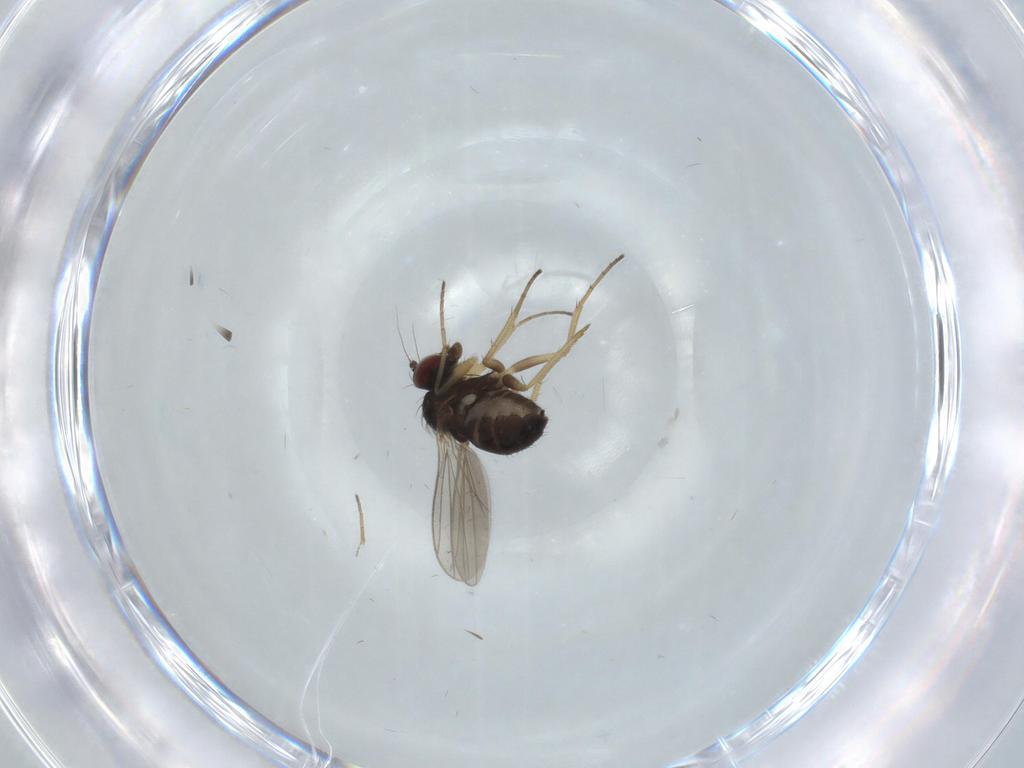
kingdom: Animalia
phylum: Arthropoda
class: Insecta
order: Diptera
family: Dolichopodidae
